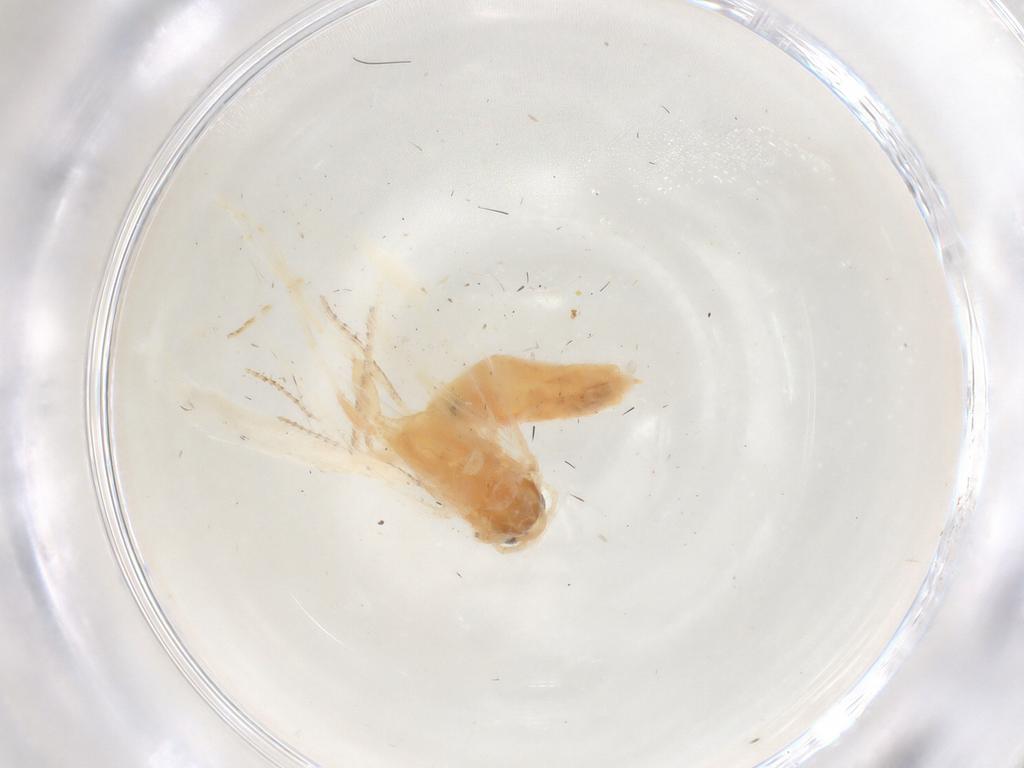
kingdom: Animalia
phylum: Arthropoda
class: Insecta
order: Lepidoptera
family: Argyresthiidae
